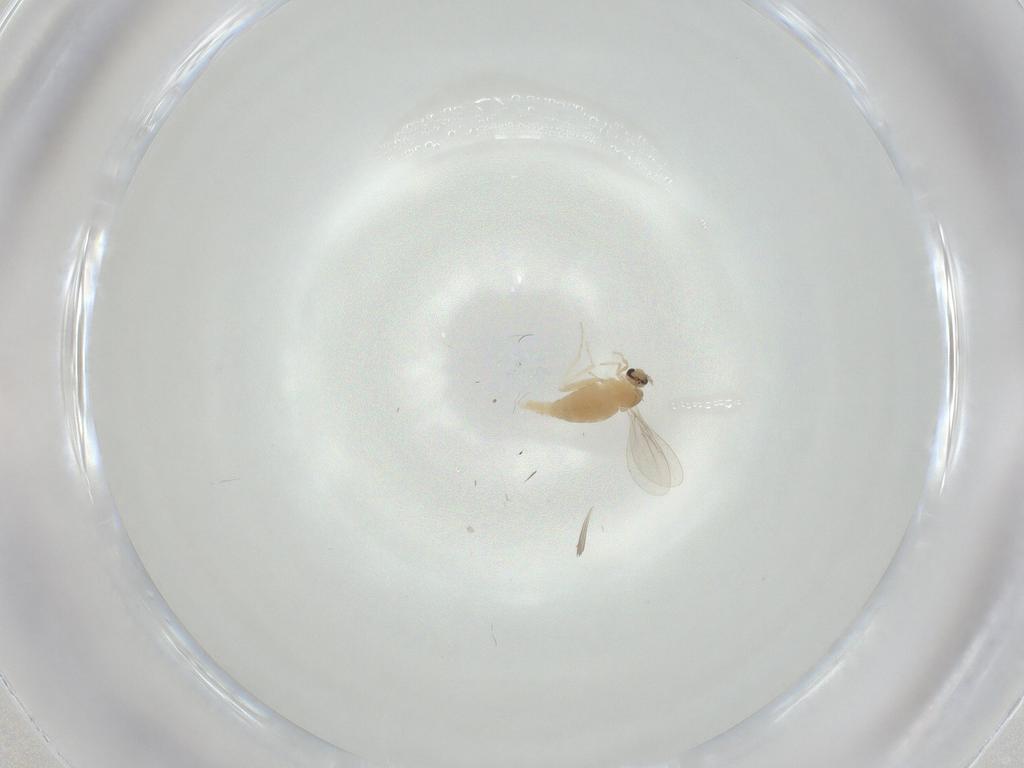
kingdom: Animalia
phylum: Arthropoda
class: Insecta
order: Diptera
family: Cecidomyiidae
